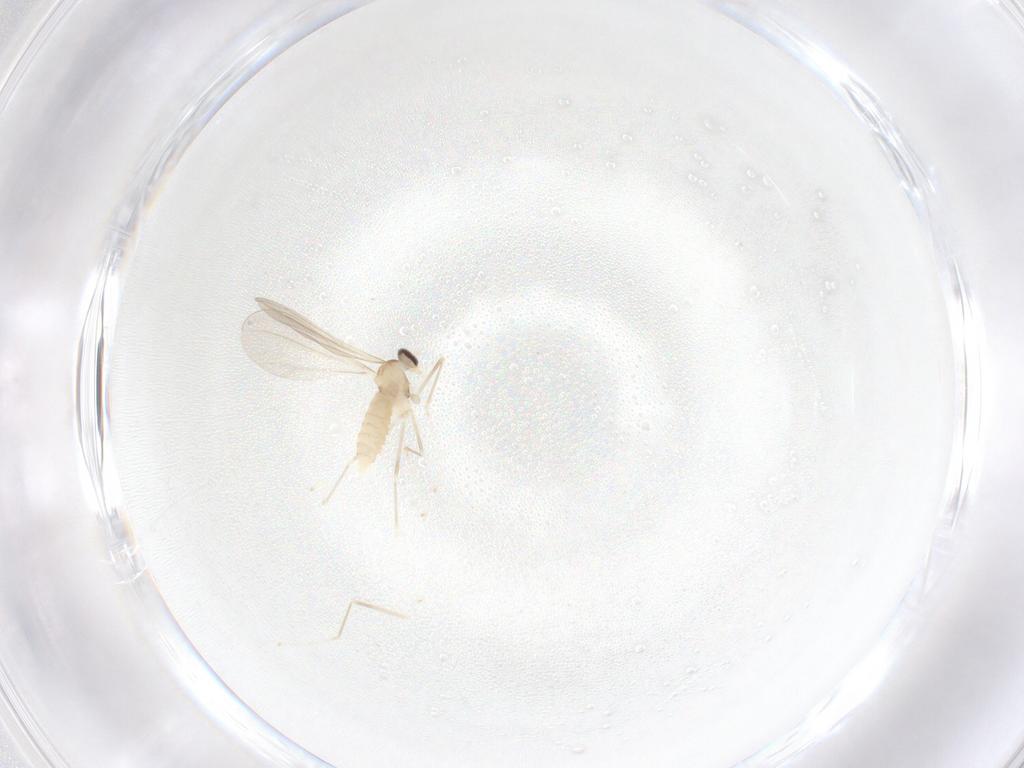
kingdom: Animalia
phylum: Arthropoda
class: Insecta
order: Diptera
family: Cecidomyiidae
